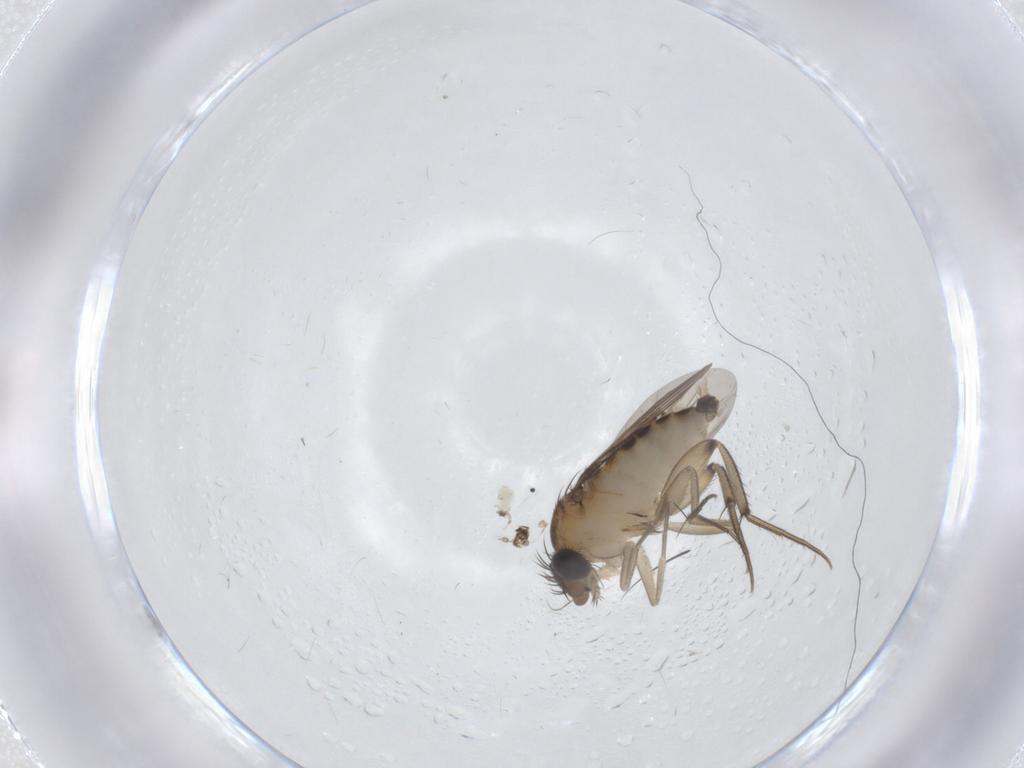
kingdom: Animalia
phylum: Arthropoda
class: Insecta
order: Diptera
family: Phoridae
